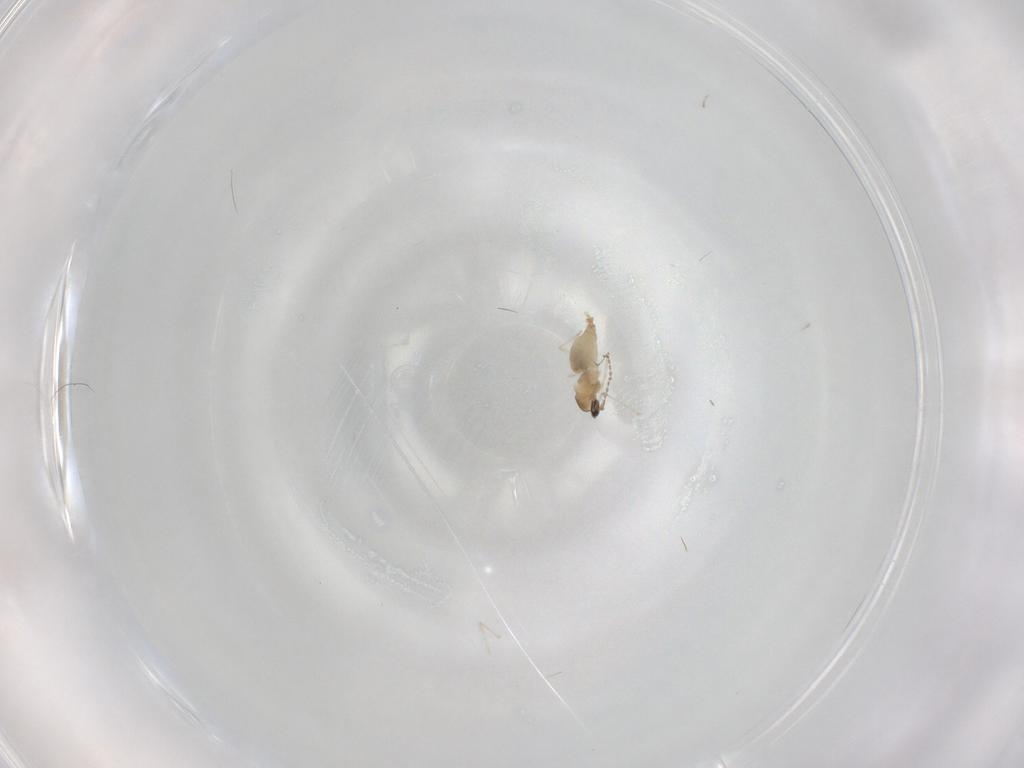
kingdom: Animalia
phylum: Arthropoda
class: Insecta
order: Diptera
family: Cecidomyiidae
